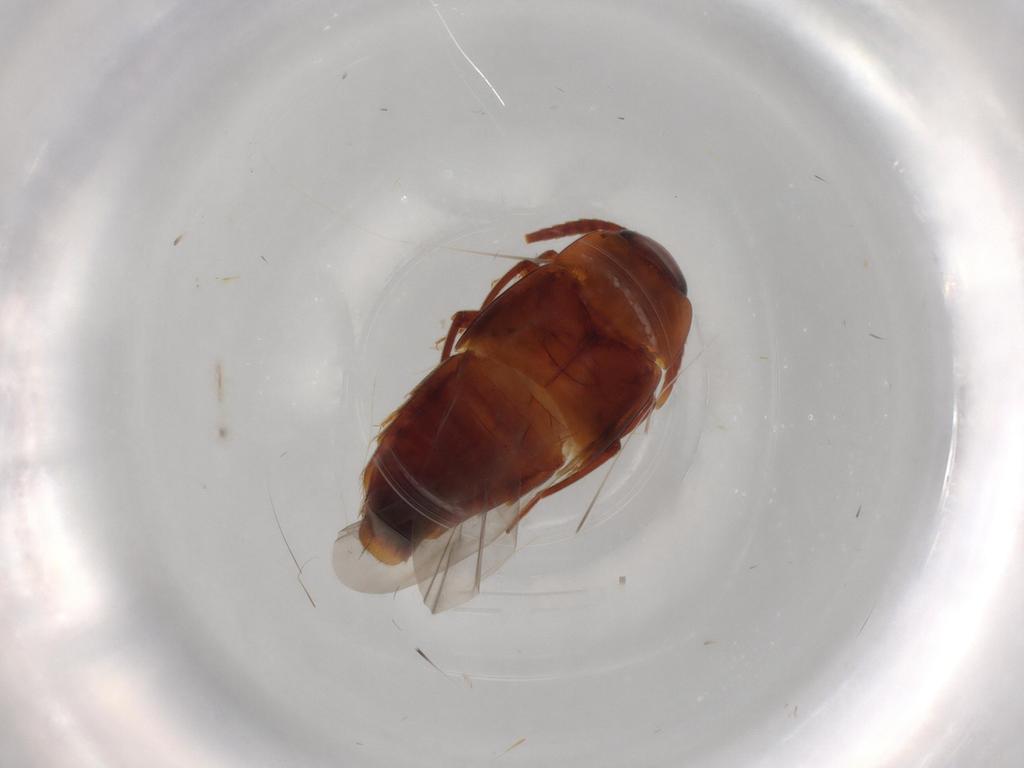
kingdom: Animalia
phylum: Arthropoda
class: Insecta
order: Coleoptera
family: Staphylinidae
